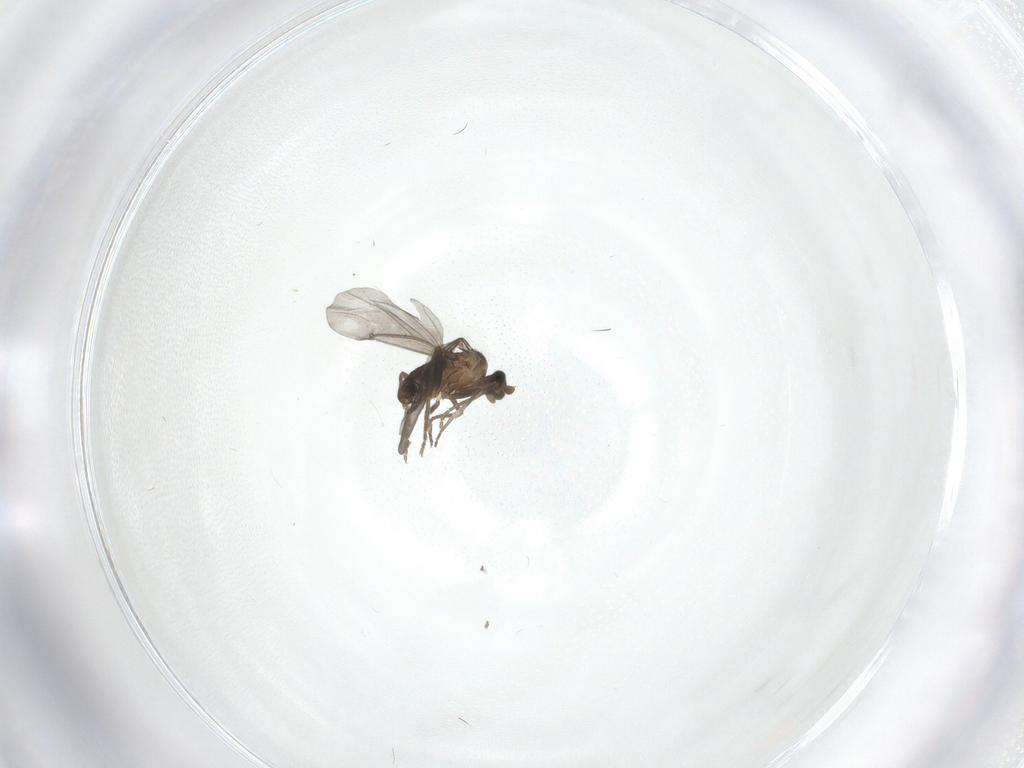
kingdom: Animalia
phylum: Arthropoda
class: Insecta
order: Diptera
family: Phoridae
